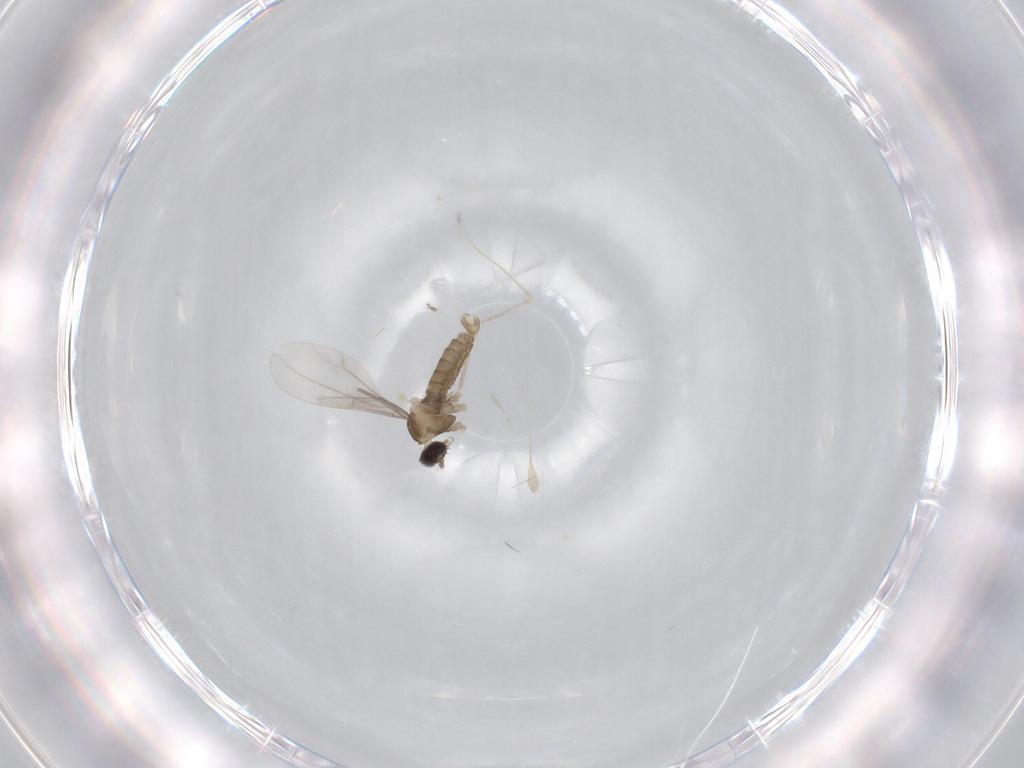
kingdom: Animalia
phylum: Arthropoda
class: Insecta
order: Diptera
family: Cecidomyiidae
